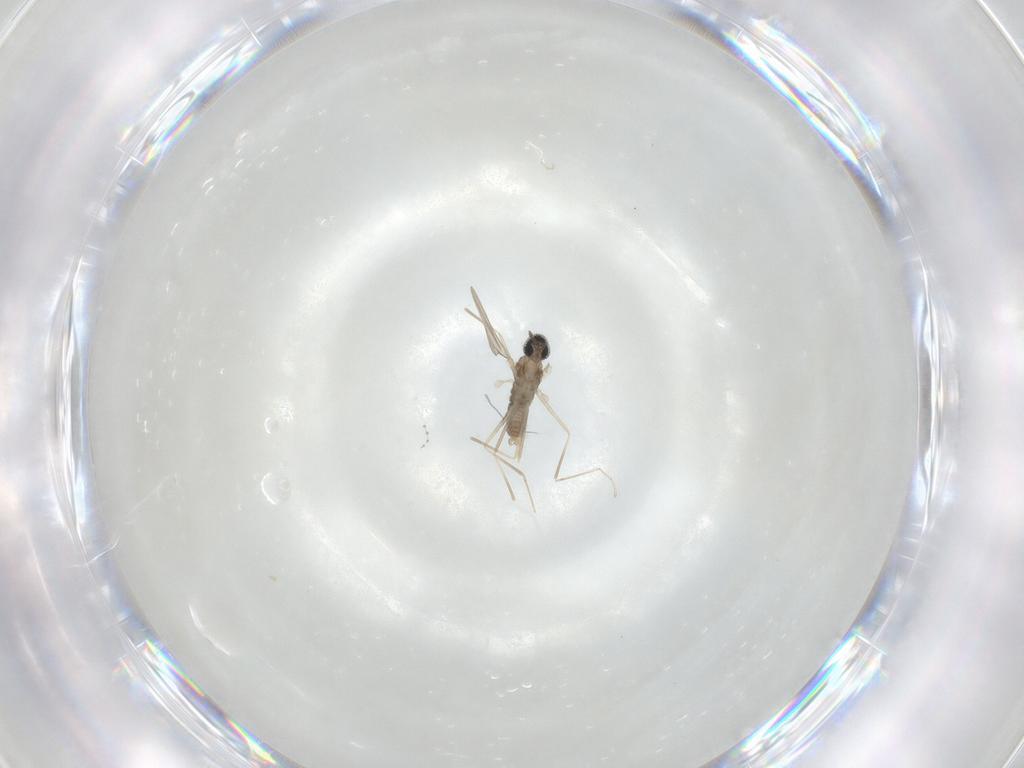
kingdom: Animalia
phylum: Arthropoda
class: Insecta
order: Diptera
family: Cecidomyiidae
